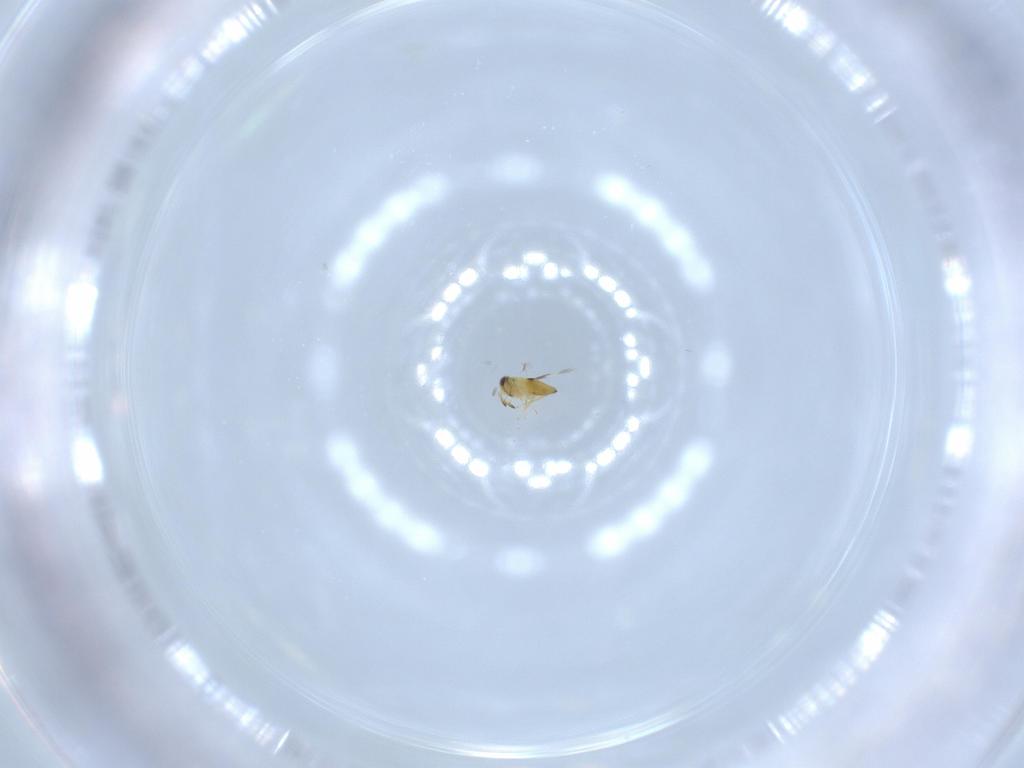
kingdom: Animalia
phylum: Arthropoda
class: Insecta
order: Hymenoptera
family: Signiphoridae
